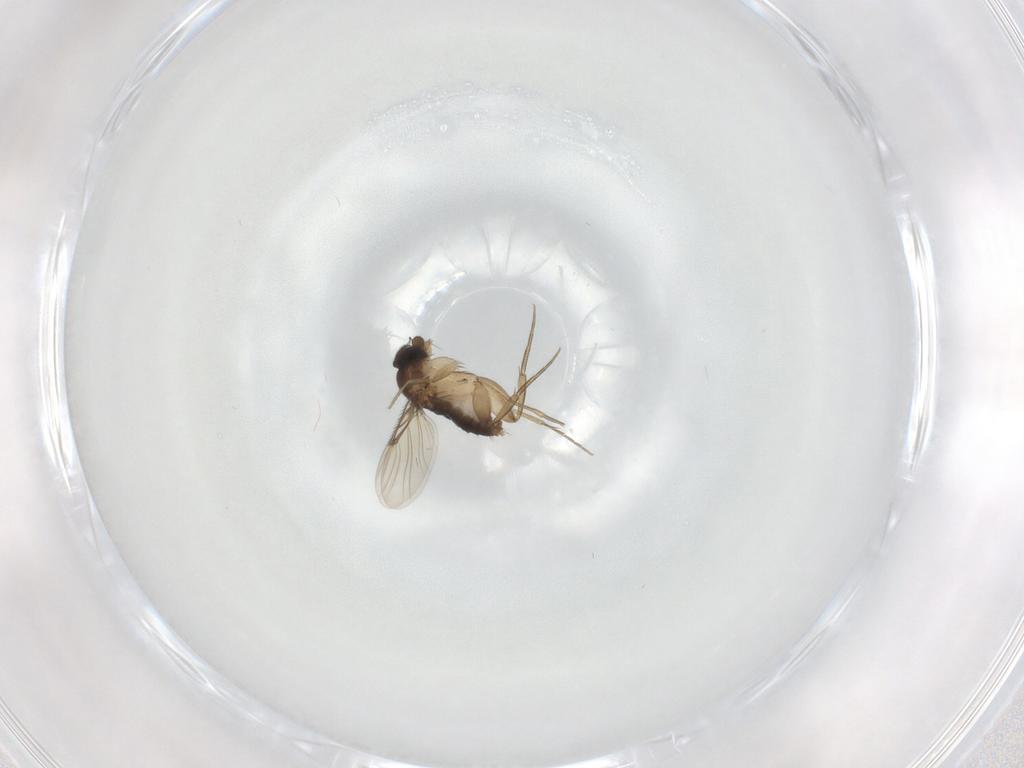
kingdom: Animalia
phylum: Arthropoda
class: Insecta
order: Diptera
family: Phoridae
